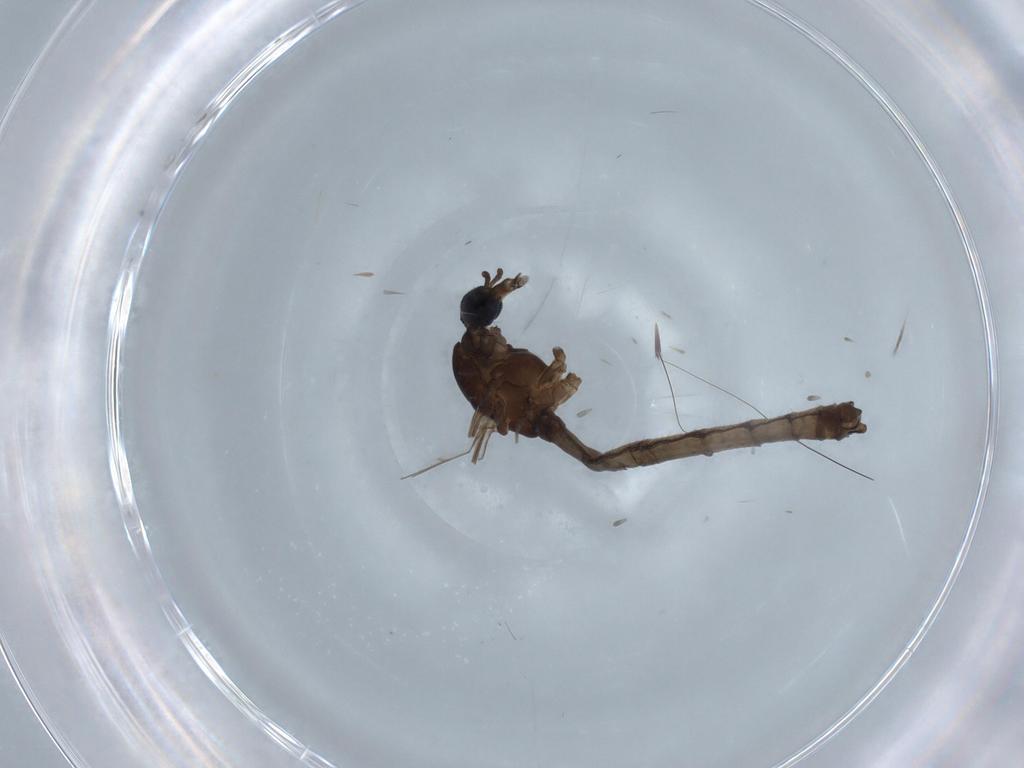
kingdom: Animalia
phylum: Arthropoda
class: Insecta
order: Diptera
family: Limoniidae
